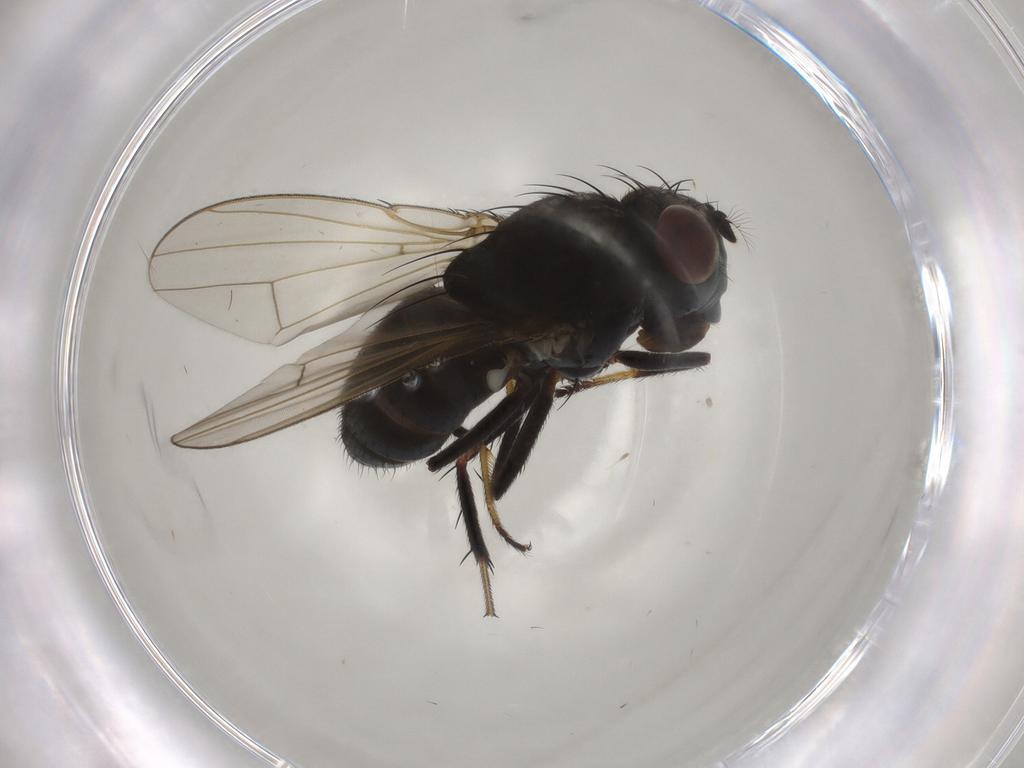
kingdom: Animalia
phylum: Arthropoda
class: Insecta
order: Diptera
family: Ephydridae
